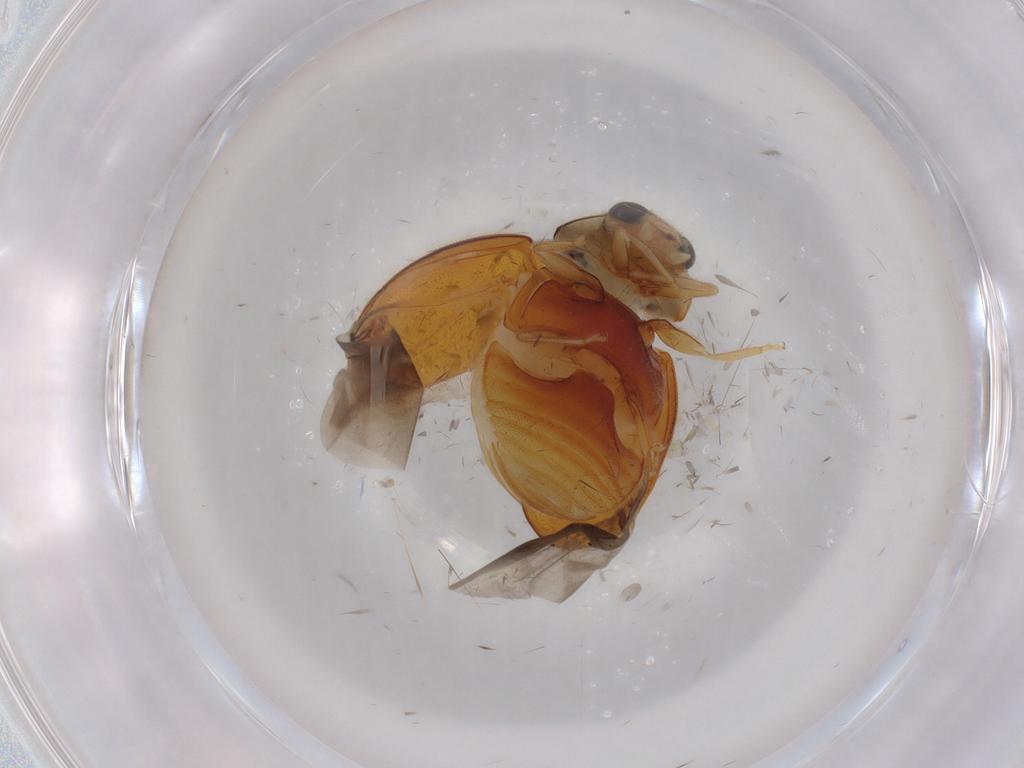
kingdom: Animalia
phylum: Arthropoda
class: Insecta
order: Coleoptera
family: Coccinellidae
